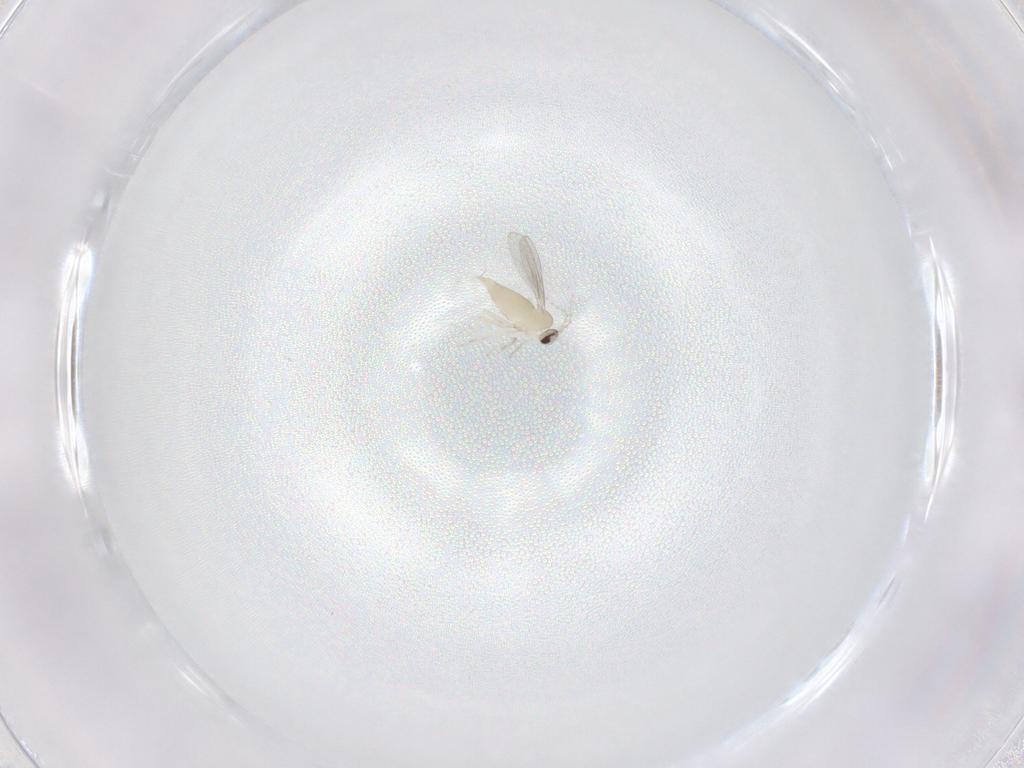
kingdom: Animalia
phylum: Arthropoda
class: Insecta
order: Diptera
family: Cecidomyiidae
